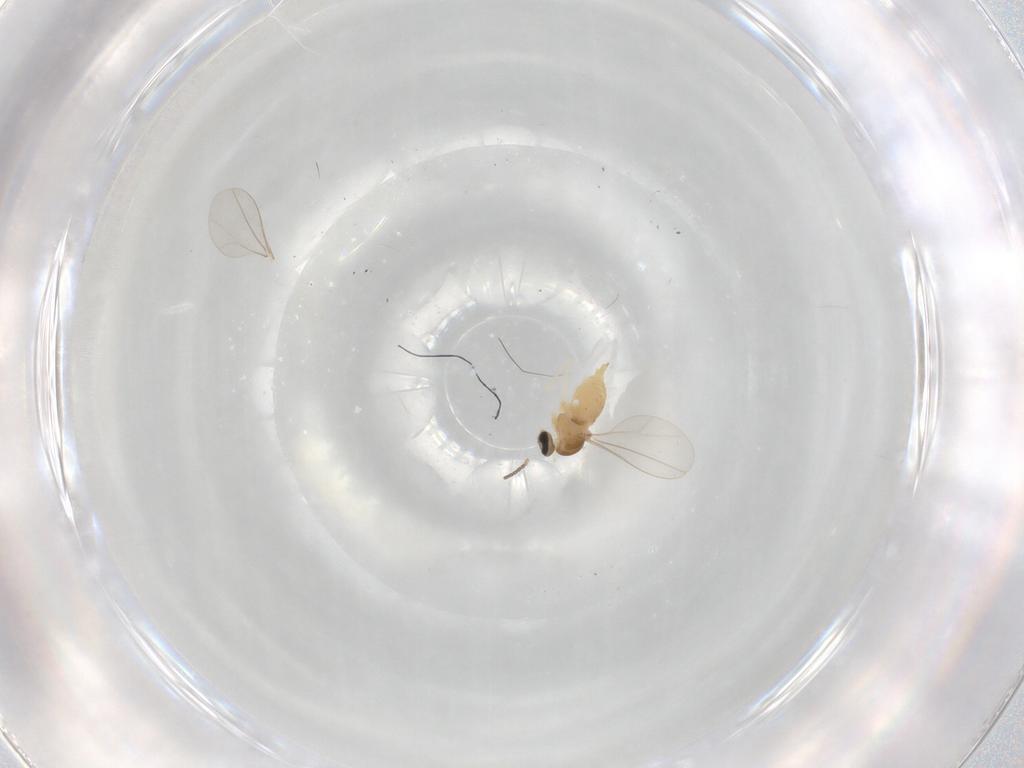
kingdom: Animalia
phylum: Arthropoda
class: Insecta
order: Diptera
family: Cecidomyiidae
